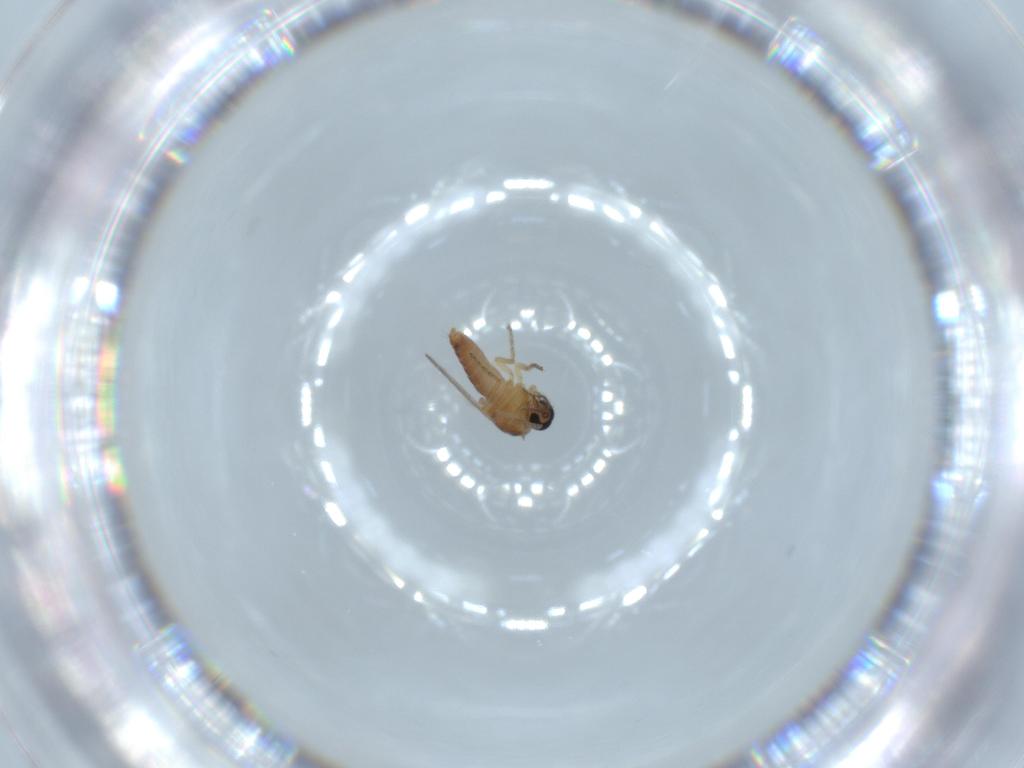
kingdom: Animalia
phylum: Arthropoda
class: Insecta
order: Diptera
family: Ceratopogonidae
